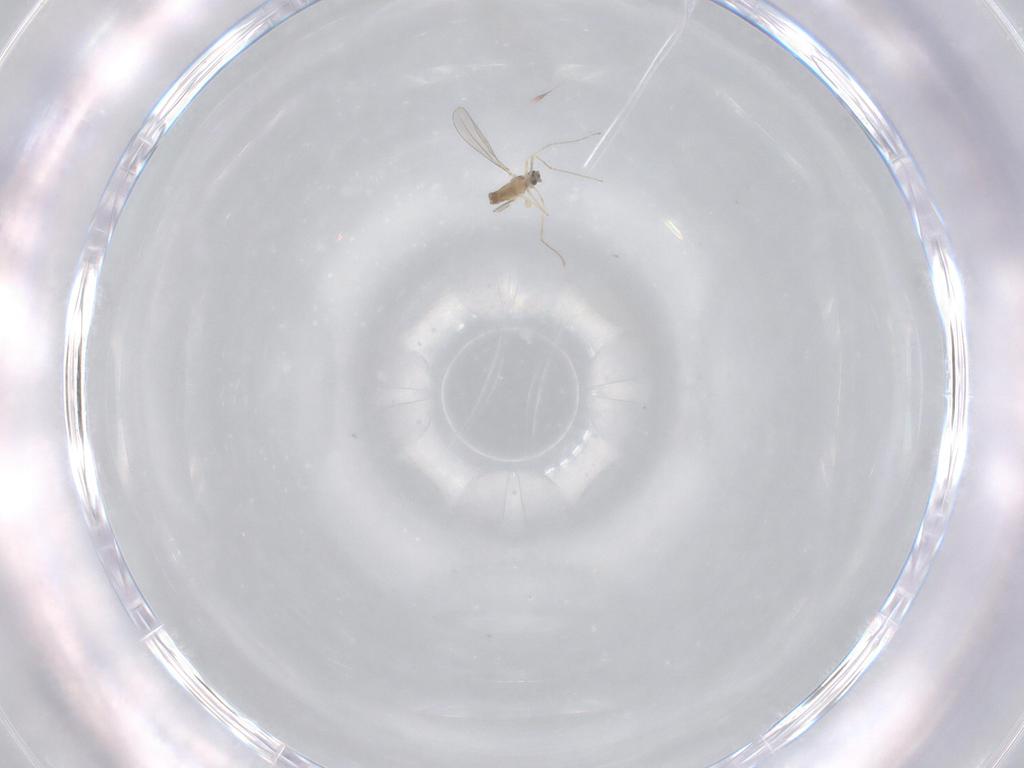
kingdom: Animalia
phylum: Arthropoda
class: Insecta
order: Diptera
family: Cecidomyiidae
